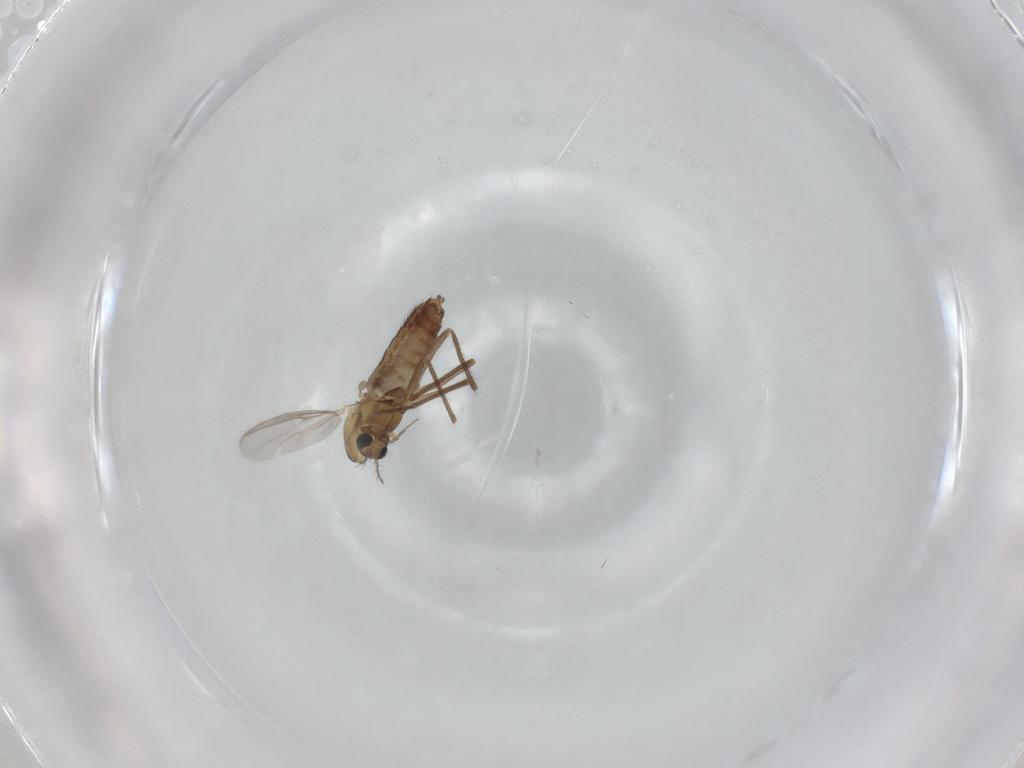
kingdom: Animalia
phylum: Arthropoda
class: Insecta
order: Diptera
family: Chironomidae
